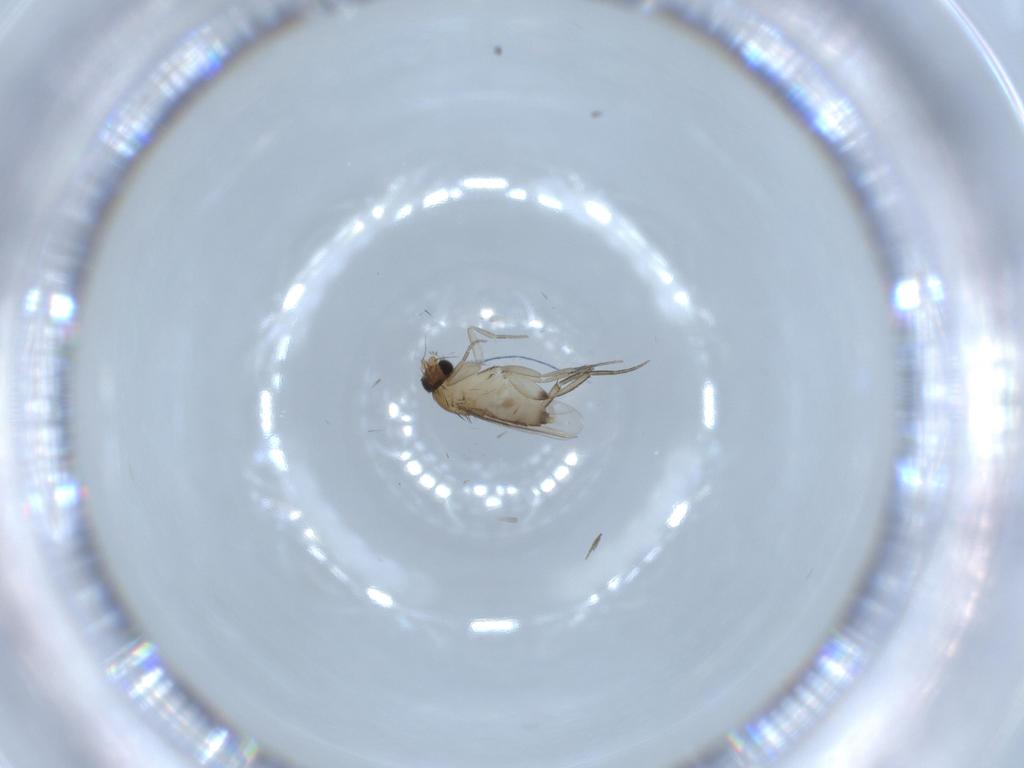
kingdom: Animalia
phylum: Arthropoda
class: Insecta
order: Diptera
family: Phoridae
